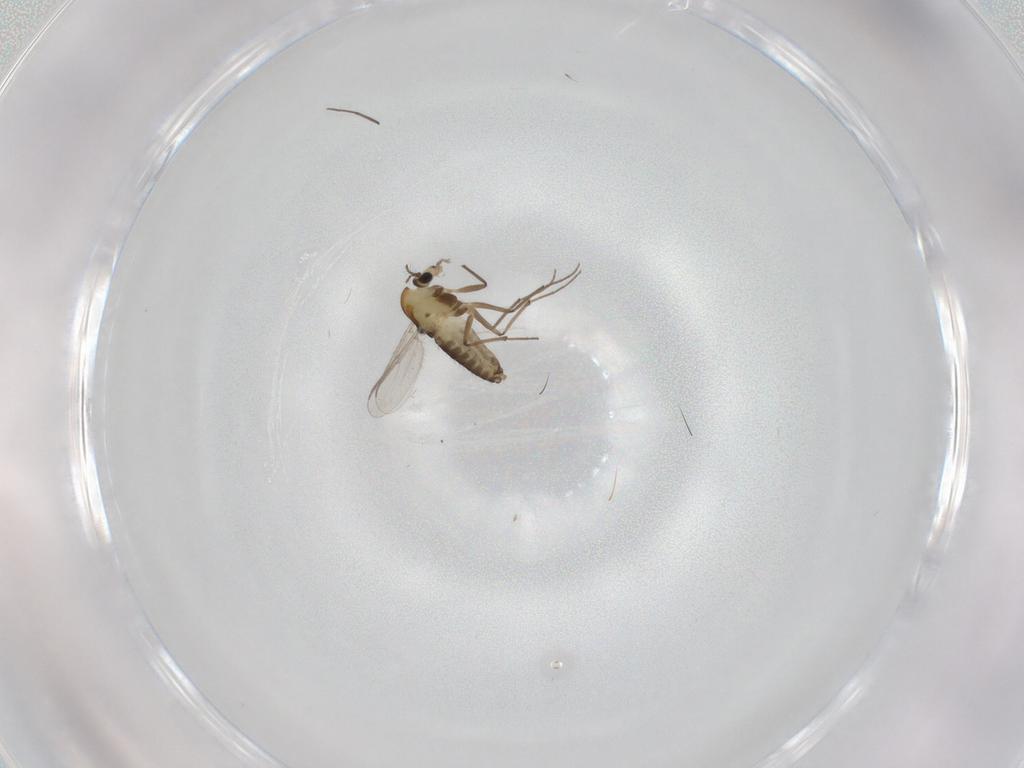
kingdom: Animalia
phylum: Arthropoda
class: Insecta
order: Diptera
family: Chironomidae
